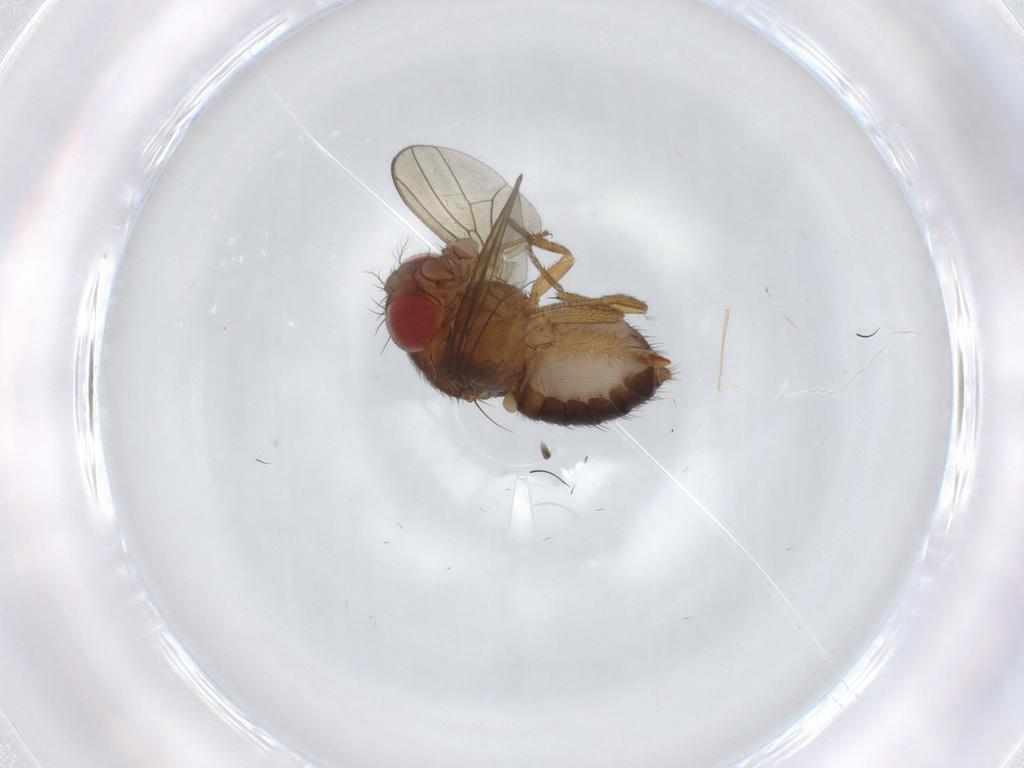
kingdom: Animalia
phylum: Arthropoda
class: Insecta
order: Diptera
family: Drosophilidae
